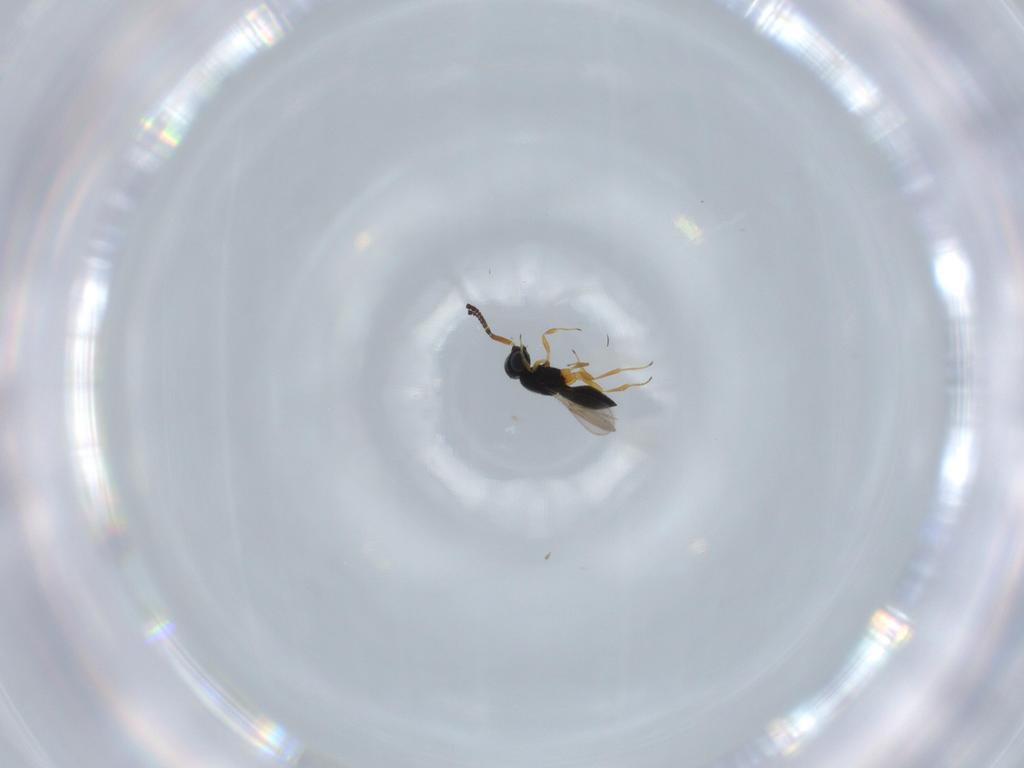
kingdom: Animalia
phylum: Arthropoda
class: Insecta
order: Hymenoptera
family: Scelionidae
